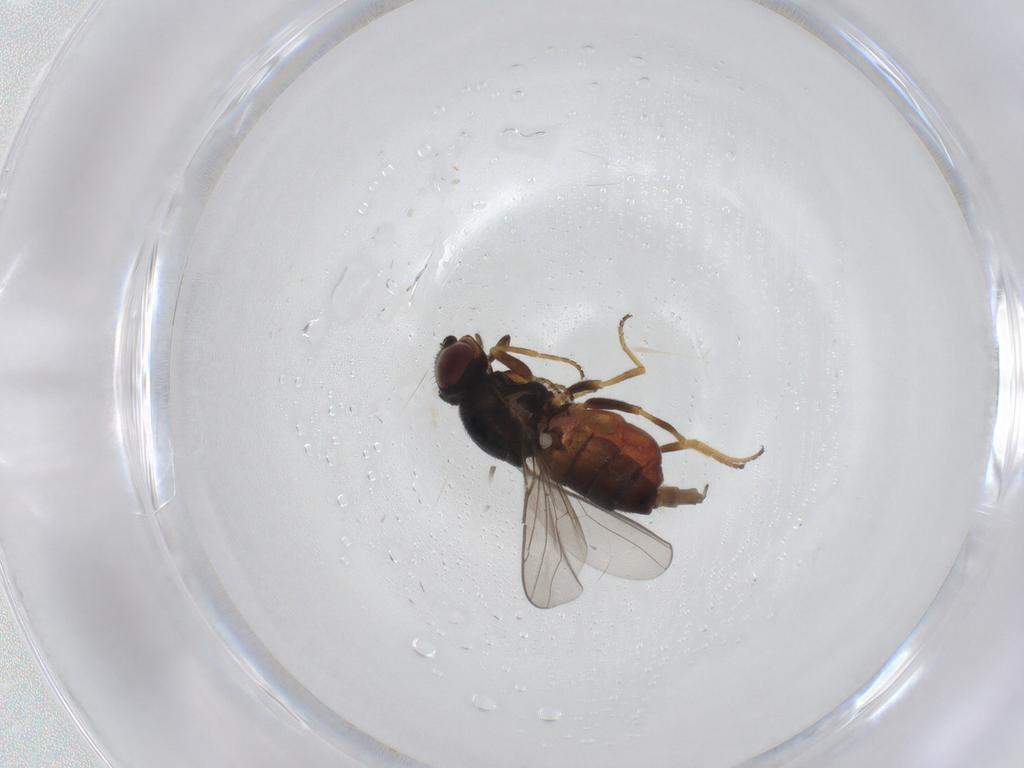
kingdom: Animalia
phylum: Arthropoda
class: Insecta
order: Diptera
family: Chloropidae
